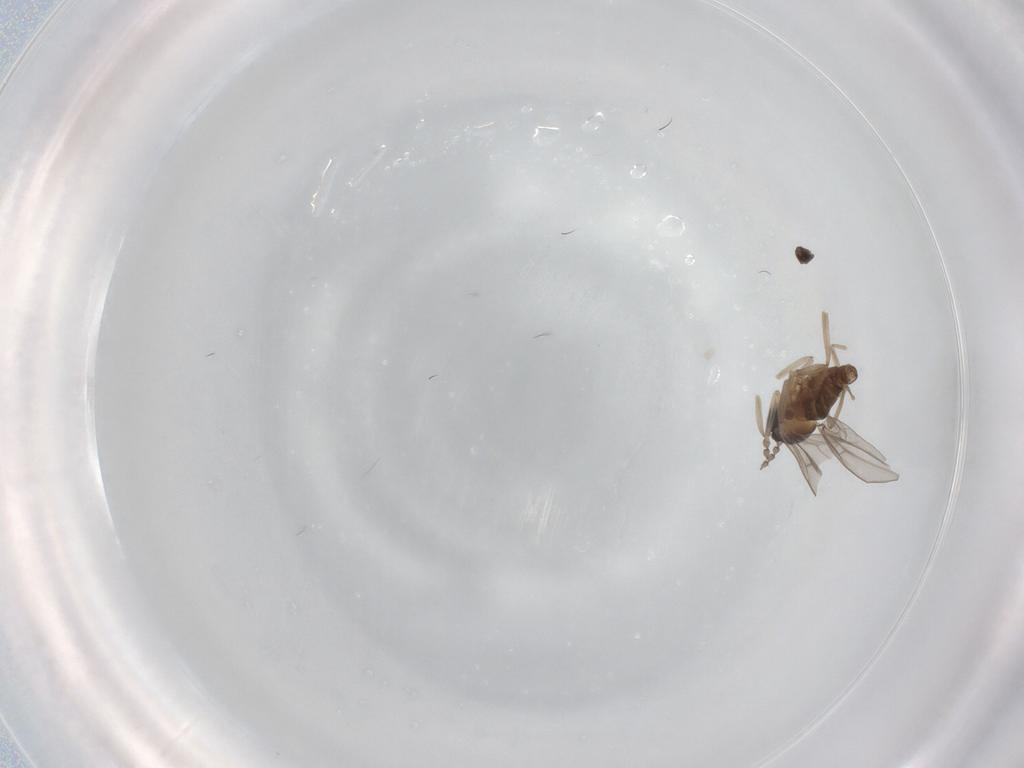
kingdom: Animalia
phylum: Arthropoda
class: Insecta
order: Diptera
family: Cecidomyiidae
